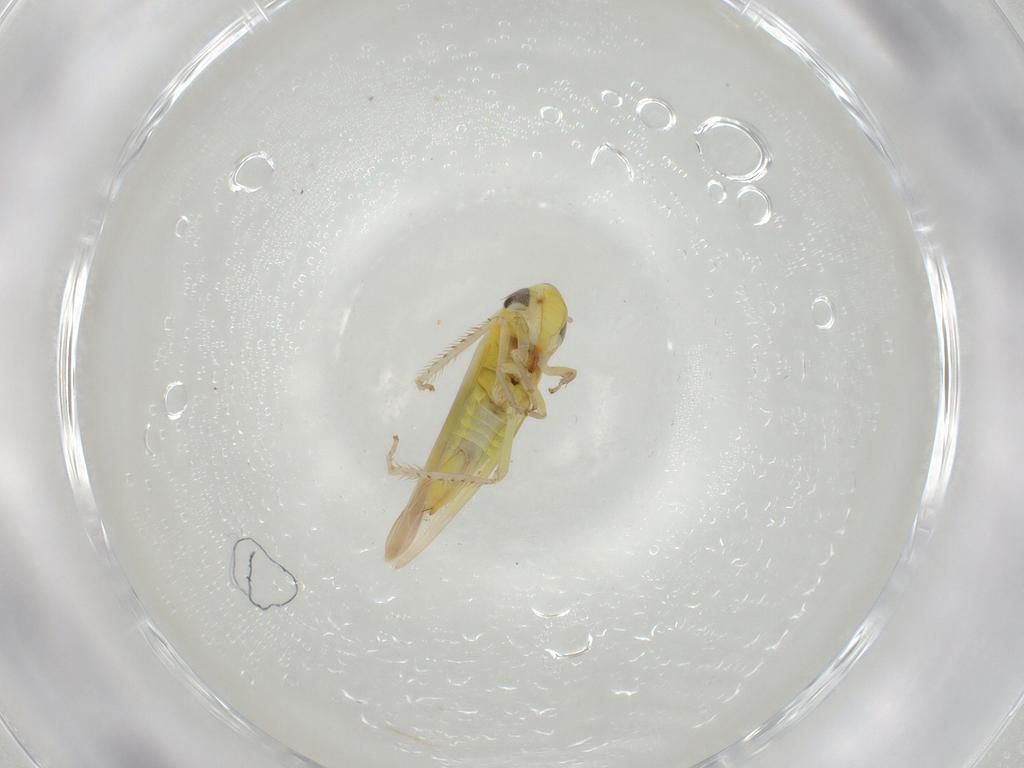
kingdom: Animalia
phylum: Arthropoda
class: Insecta
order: Hemiptera
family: Cicadellidae
